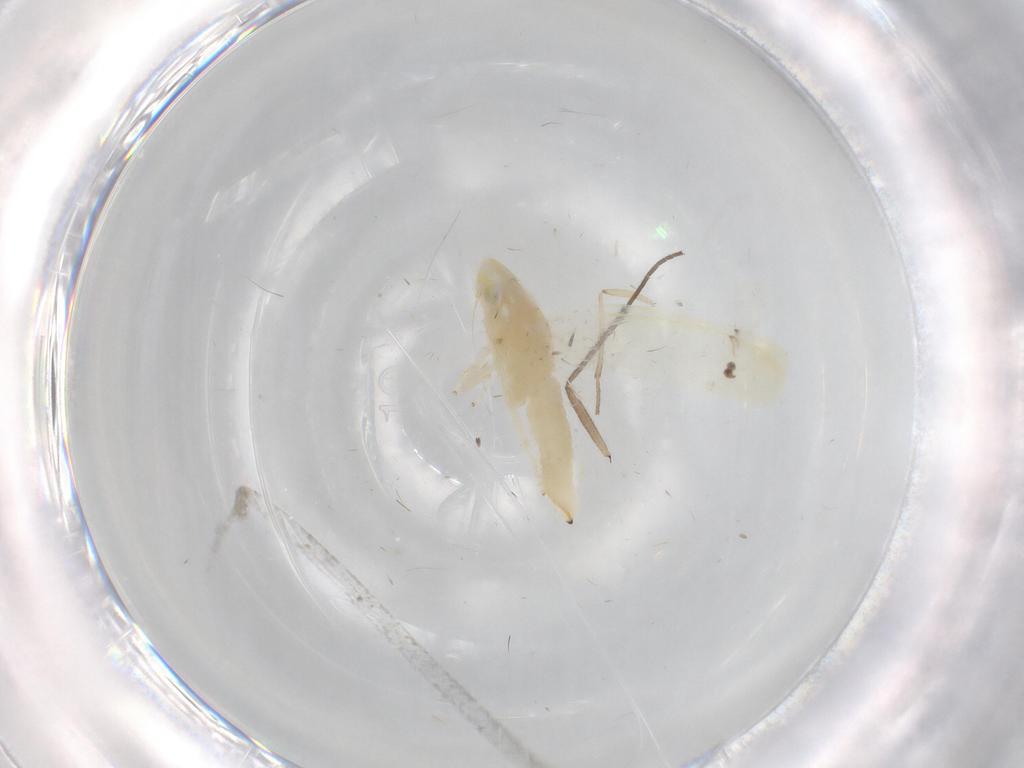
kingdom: Animalia
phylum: Arthropoda
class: Insecta
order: Hemiptera
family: Cicadellidae
